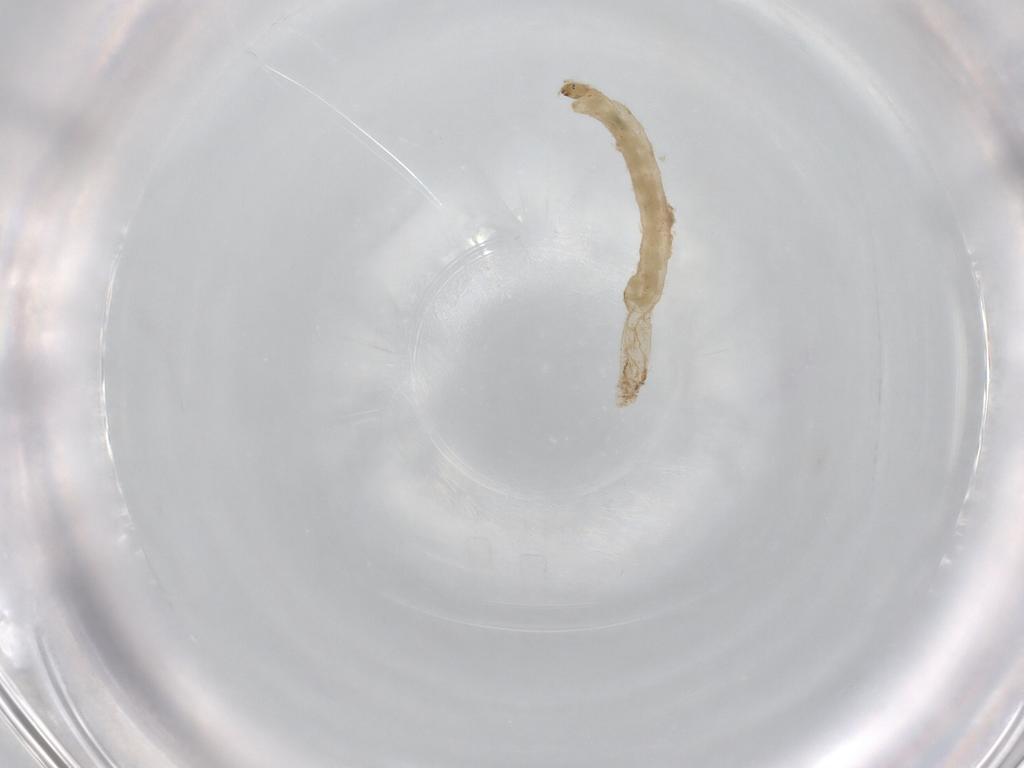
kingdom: Animalia
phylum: Arthropoda
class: Insecta
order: Diptera
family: Chironomidae
